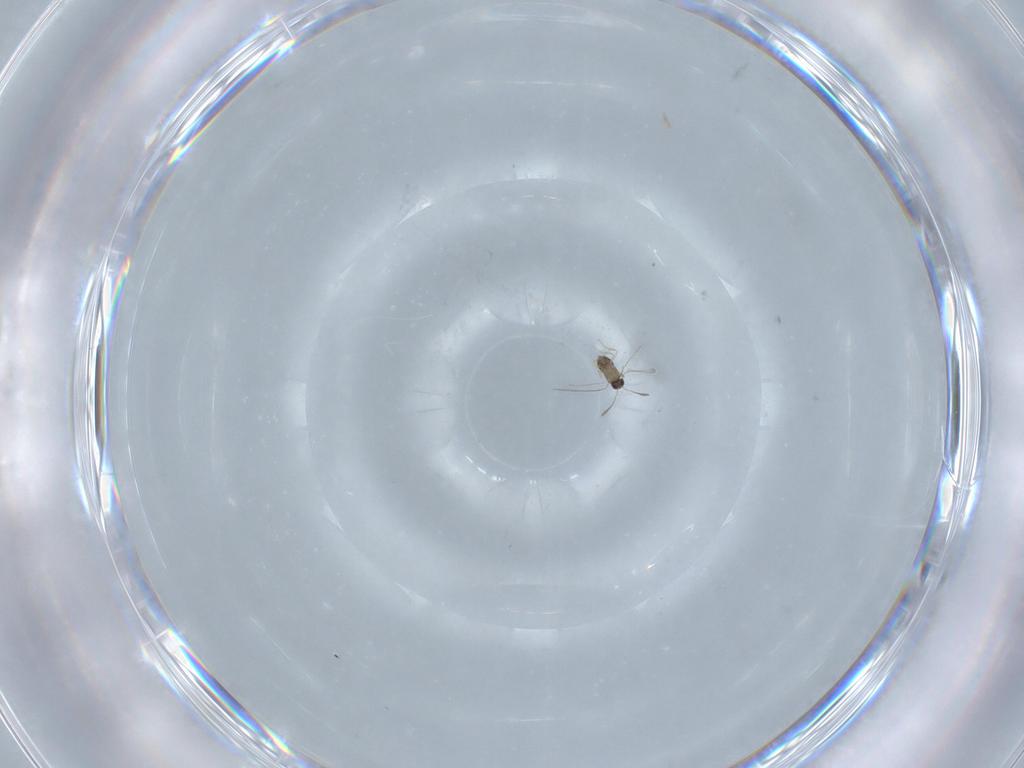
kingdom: Animalia
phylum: Arthropoda
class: Insecta
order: Hymenoptera
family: Mymaridae
